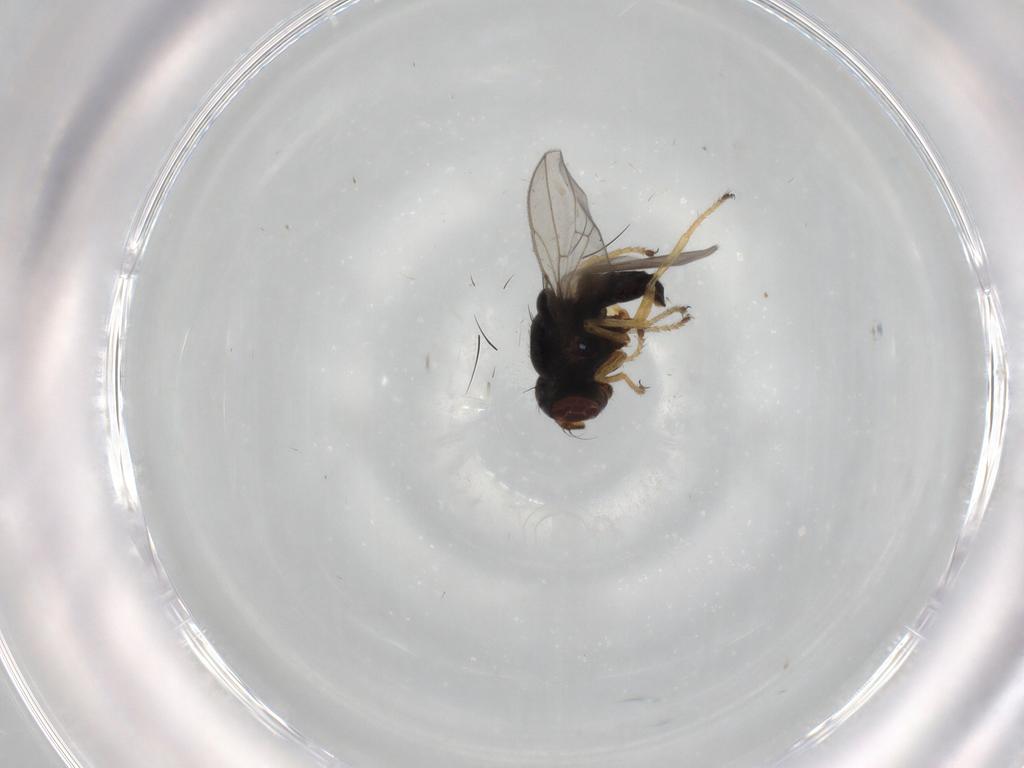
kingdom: Animalia
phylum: Arthropoda
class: Insecta
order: Diptera
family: Ephydridae
